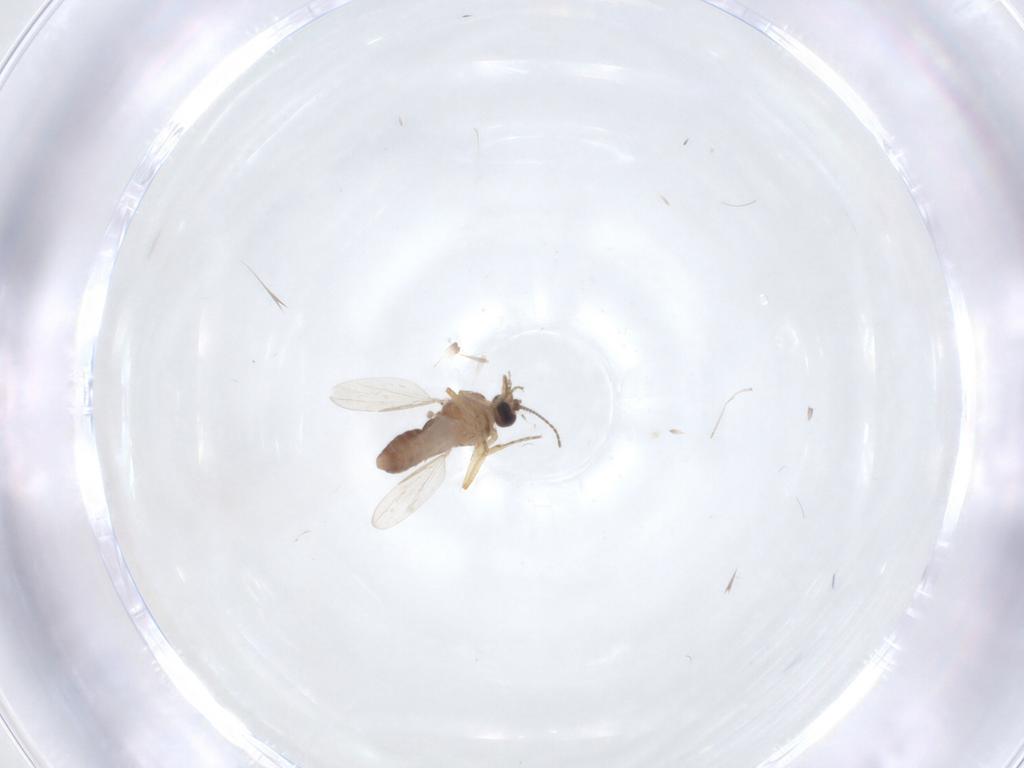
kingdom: Animalia
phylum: Arthropoda
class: Insecta
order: Diptera
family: Ceratopogonidae
